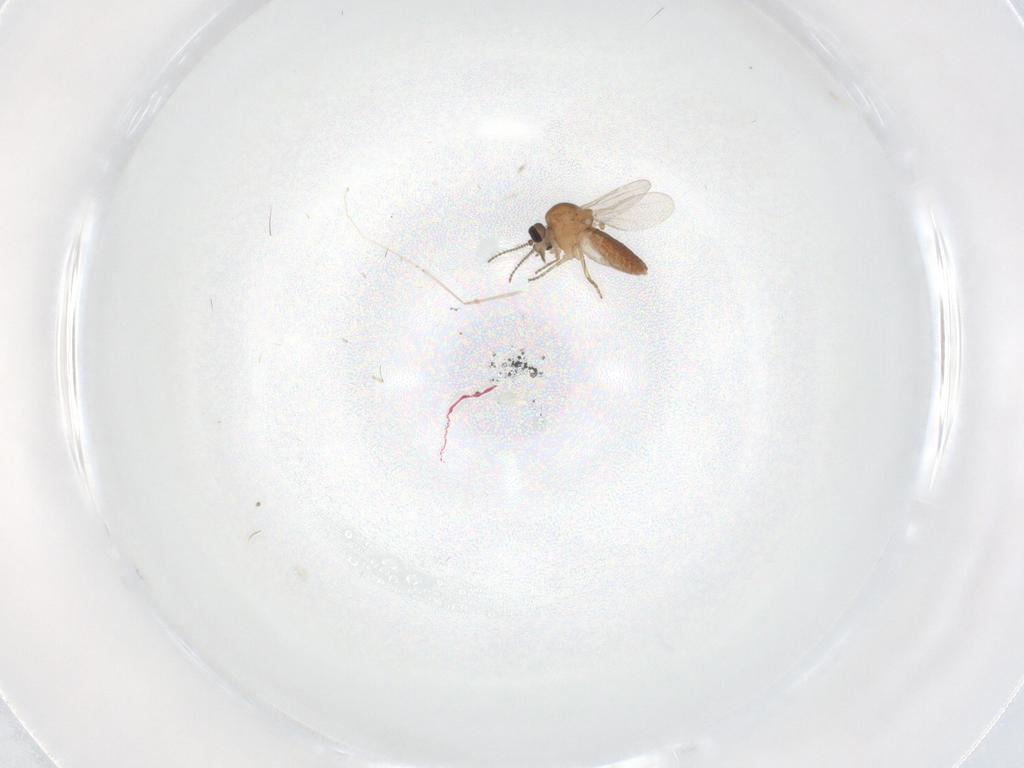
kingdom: Animalia
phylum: Arthropoda
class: Insecta
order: Diptera
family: Ceratopogonidae
